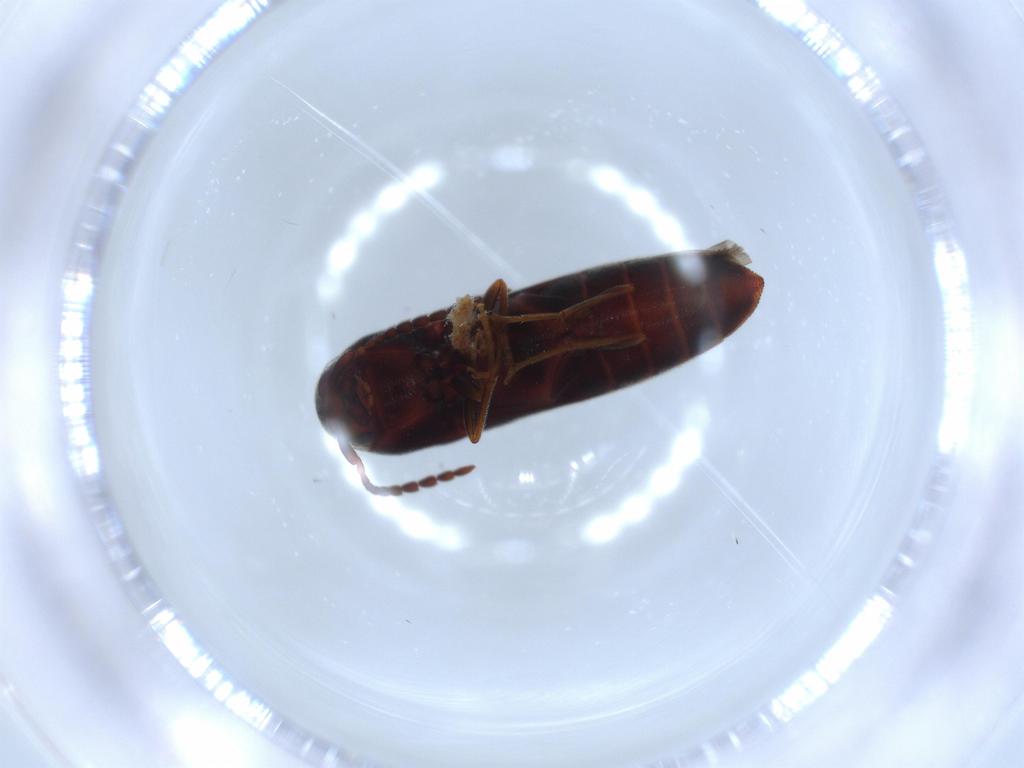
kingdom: Animalia
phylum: Arthropoda
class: Insecta
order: Coleoptera
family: Eucnemidae
